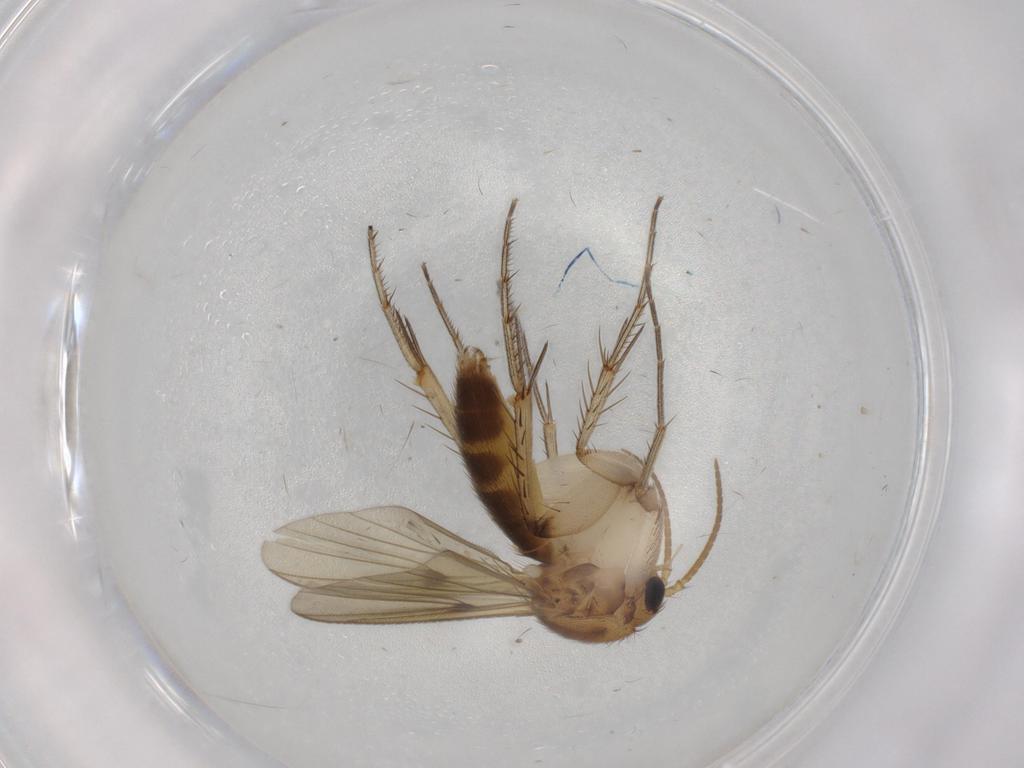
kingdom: Animalia
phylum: Arthropoda
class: Insecta
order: Diptera
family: Mycetophilidae
